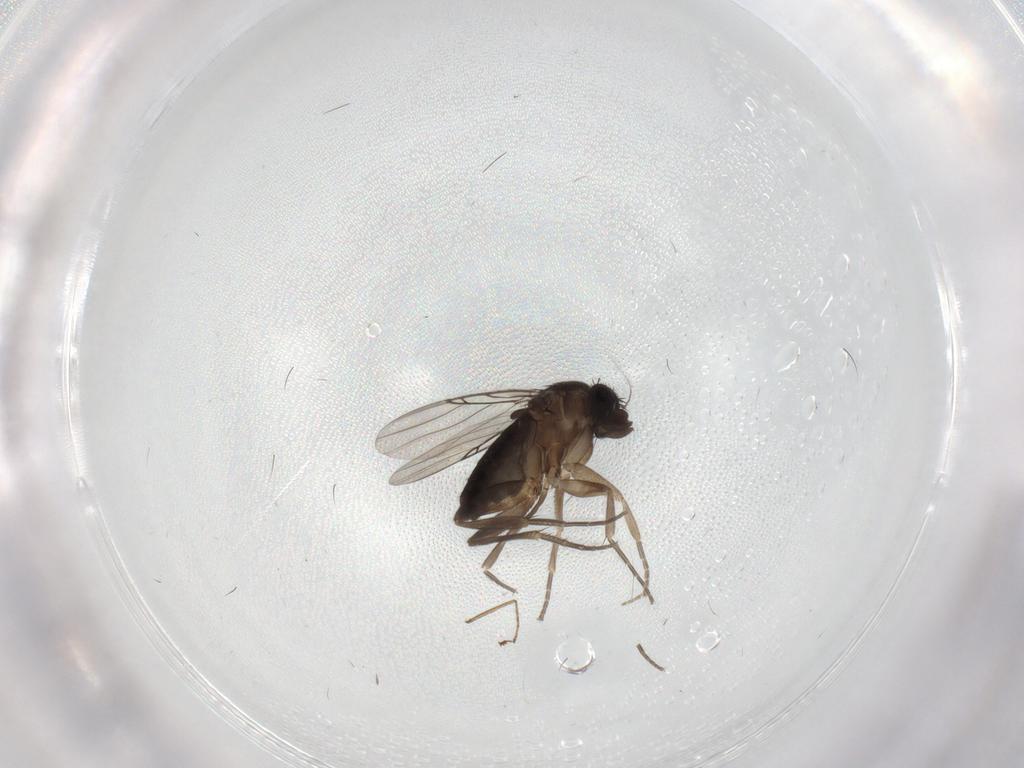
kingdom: Animalia
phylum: Arthropoda
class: Insecta
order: Diptera
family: Phoridae
